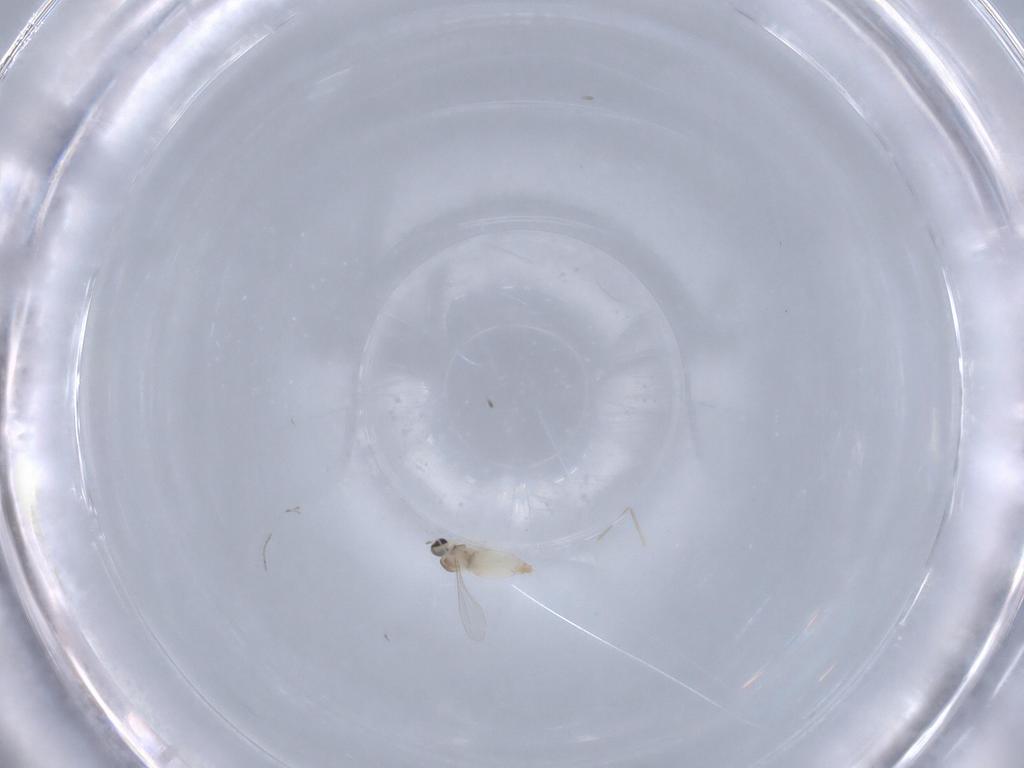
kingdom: Animalia
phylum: Arthropoda
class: Insecta
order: Diptera
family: Cecidomyiidae
